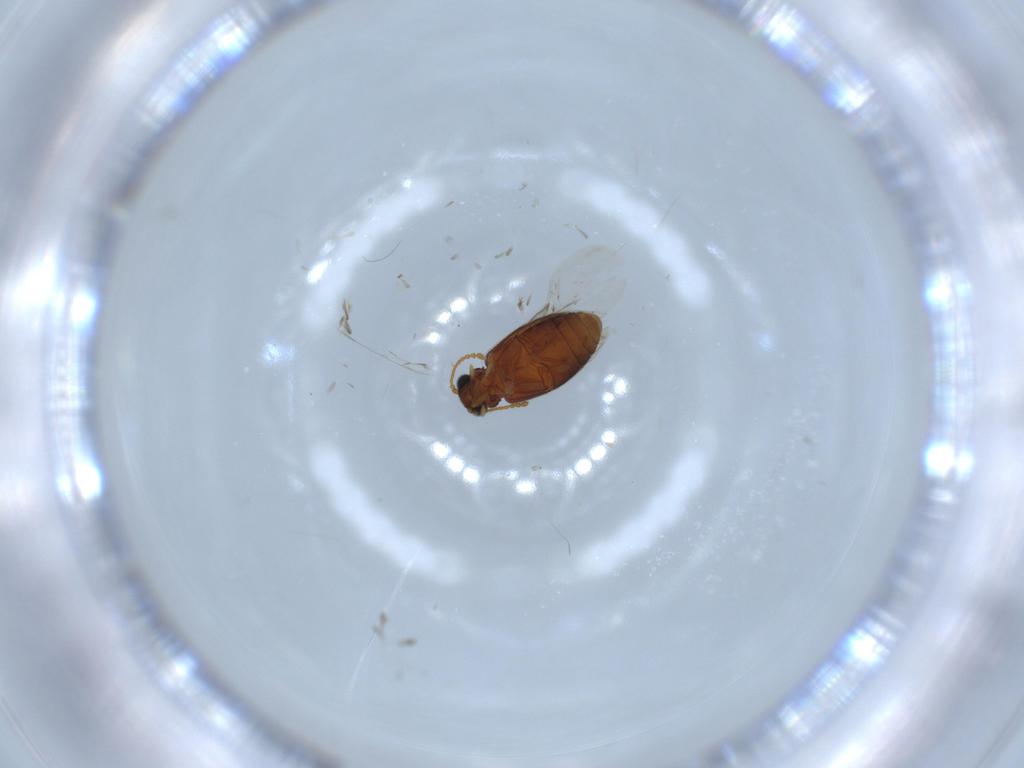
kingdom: Animalia
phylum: Arthropoda
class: Insecta
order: Coleoptera
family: Aderidae
